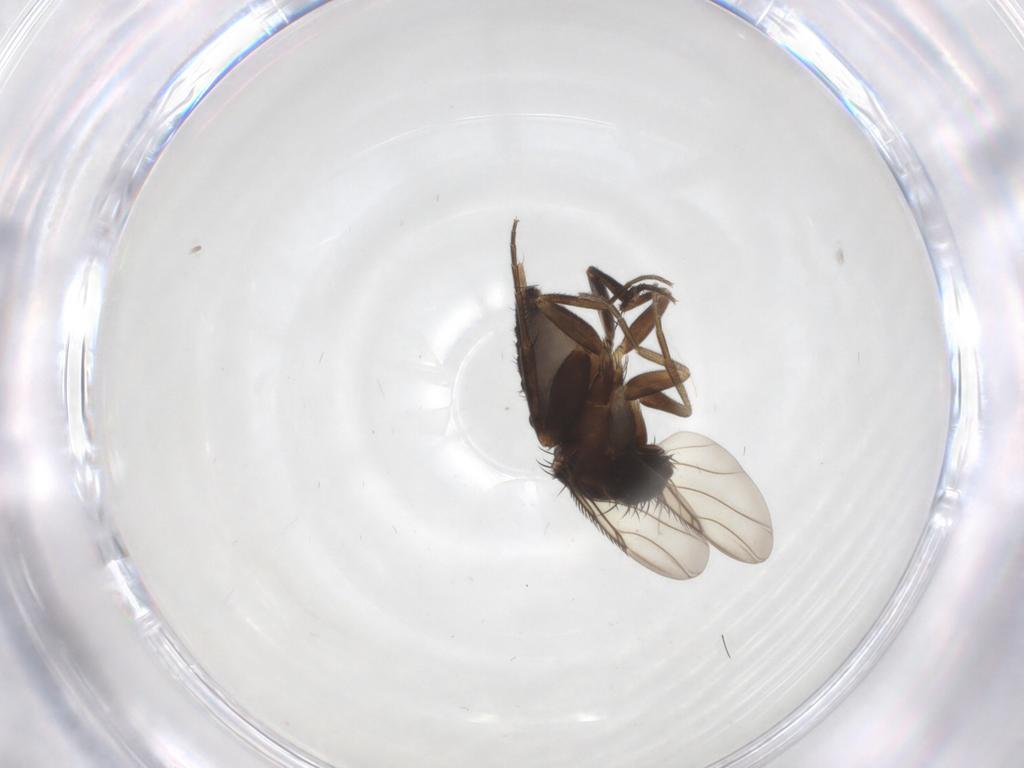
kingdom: Animalia
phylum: Arthropoda
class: Insecta
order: Diptera
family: Phoridae
